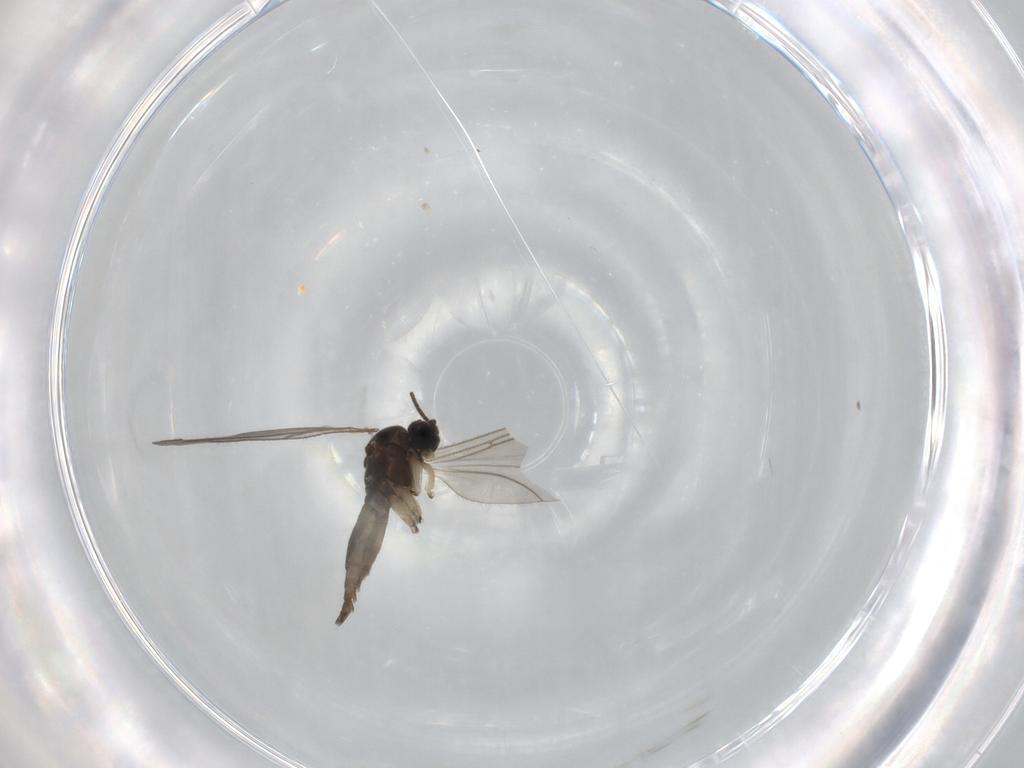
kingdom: Animalia
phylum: Arthropoda
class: Insecta
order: Diptera
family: Sciaridae
